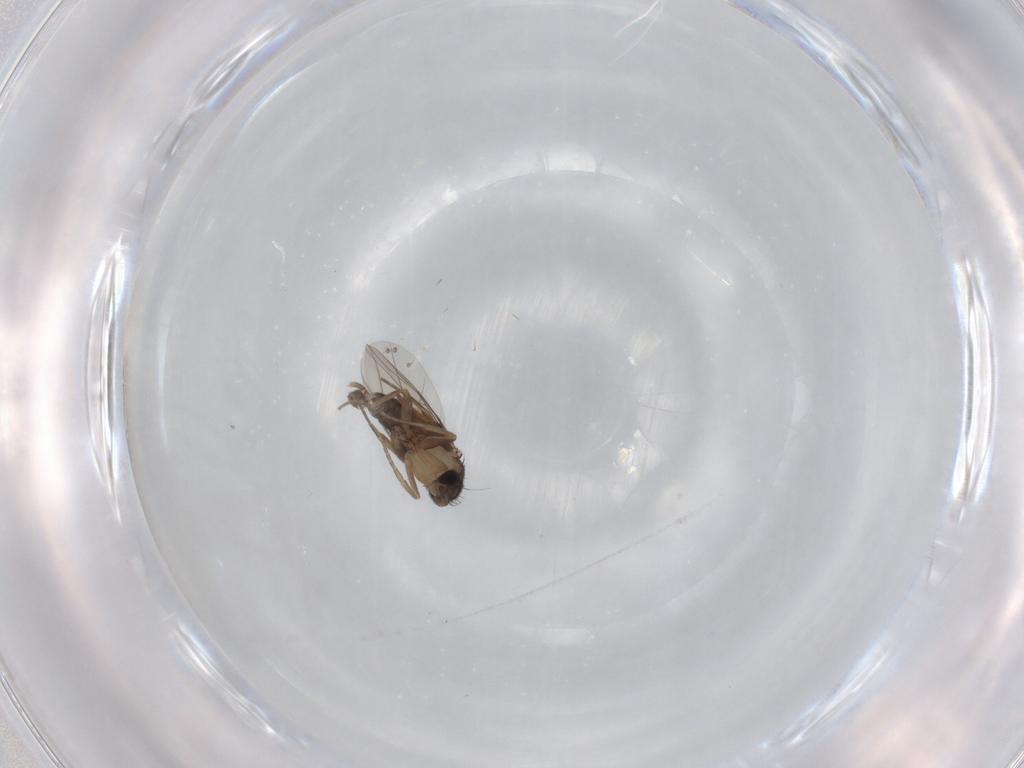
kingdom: Animalia
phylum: Arthropoda
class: Insecta
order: Diptera
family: Phoridae
